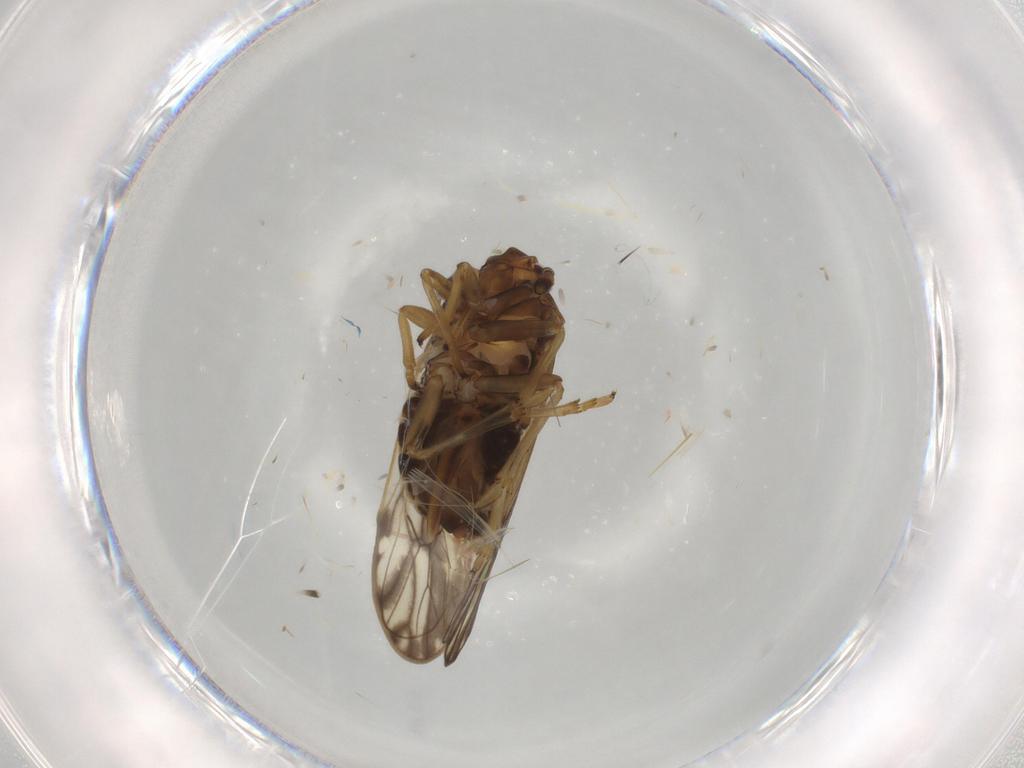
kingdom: Animalia
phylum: Arthropoda
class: Insecta
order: Hemiptera
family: Delphacidae
